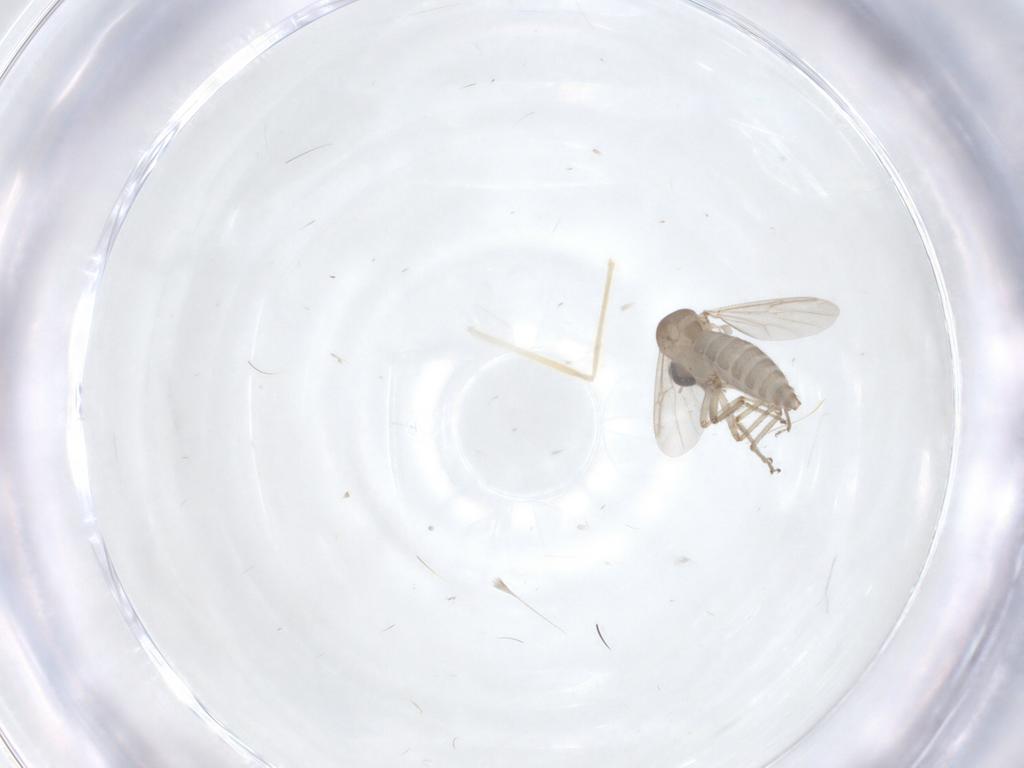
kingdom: Animalia
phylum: Arthropoda
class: Insecta
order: Diptera
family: Ceratopogonidae
